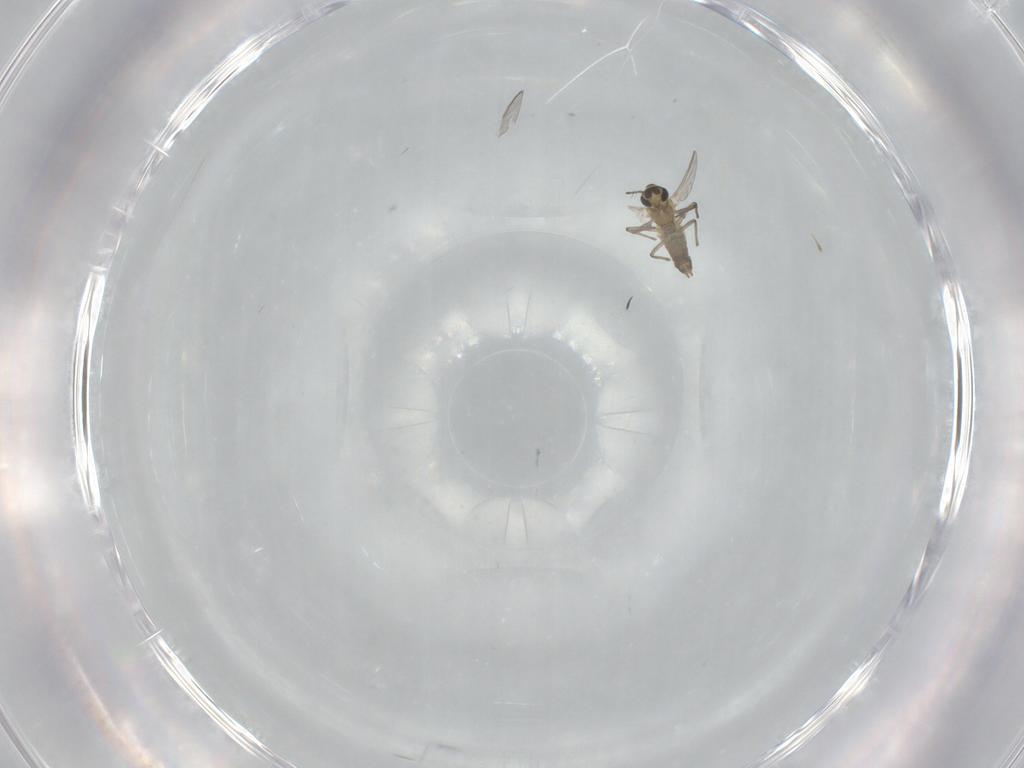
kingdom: Animalia
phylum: Arthropoda
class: Insecta
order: Diptera
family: Chironomidae
